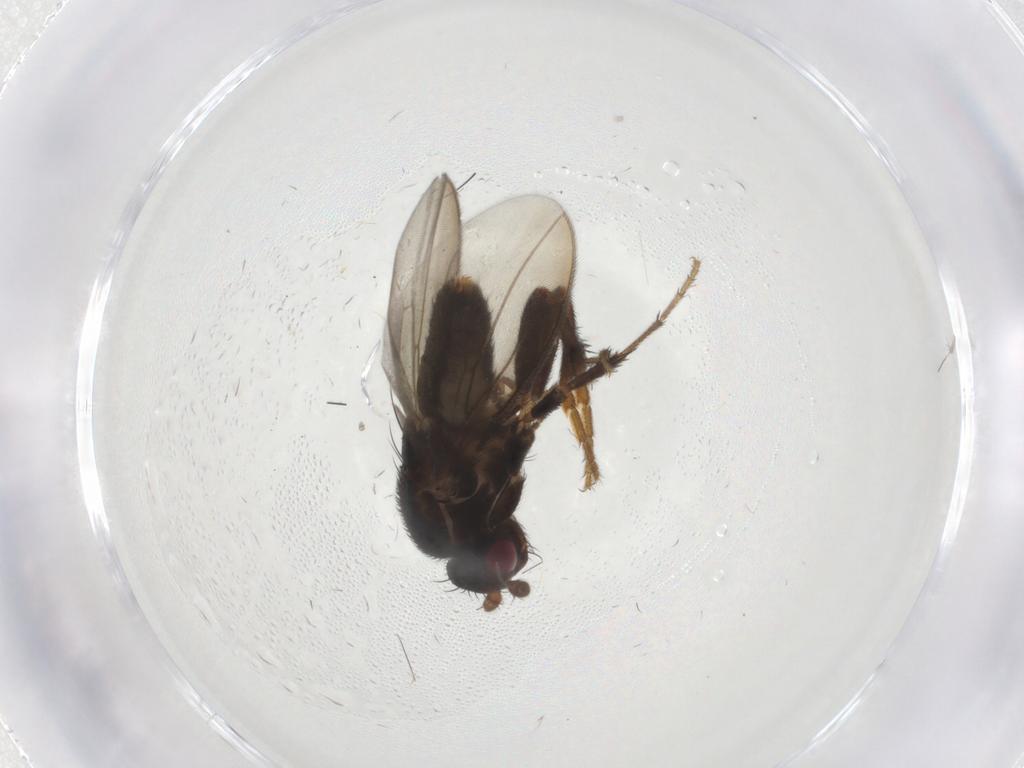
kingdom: Animalia
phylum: Arthropoda
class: Insecta
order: Diptera
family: Sphaeroceridae
